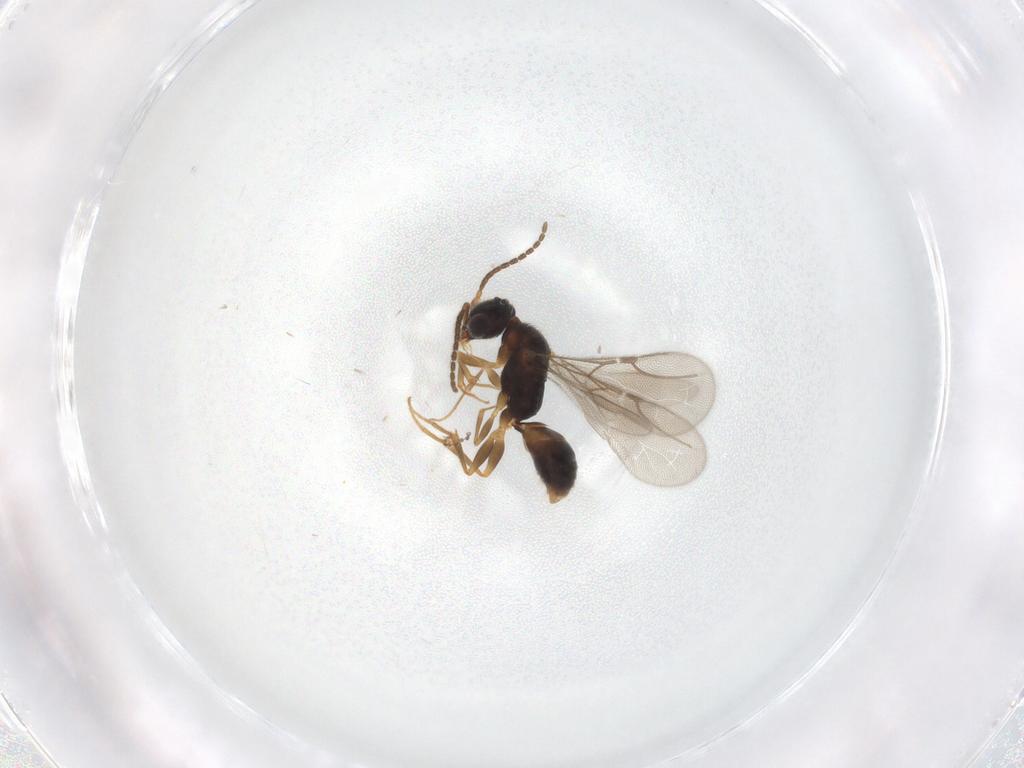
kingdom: Animalia
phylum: Arthropoda
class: Insecta
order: Hymenoptera
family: Bethylidae
